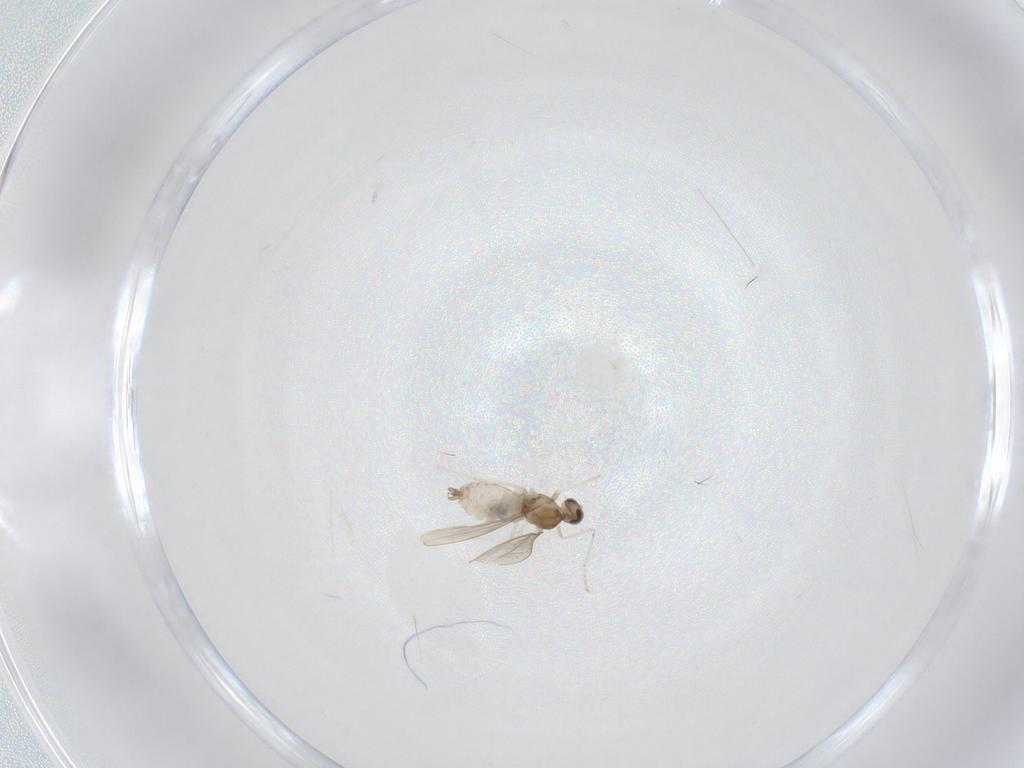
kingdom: Animalia
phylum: Arthropoda
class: Insecta
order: Diptera
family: Cecidomyiidae
